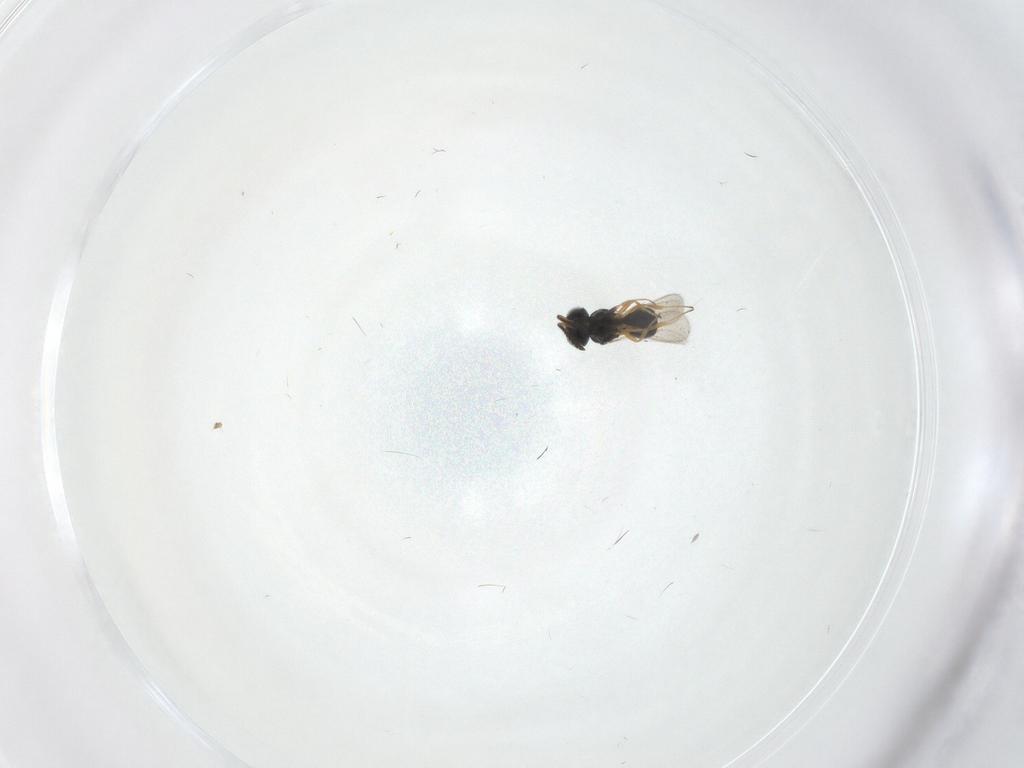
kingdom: Animalia
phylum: Arthropoda
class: Insecta
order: Hymenoptera
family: Scelionidae
